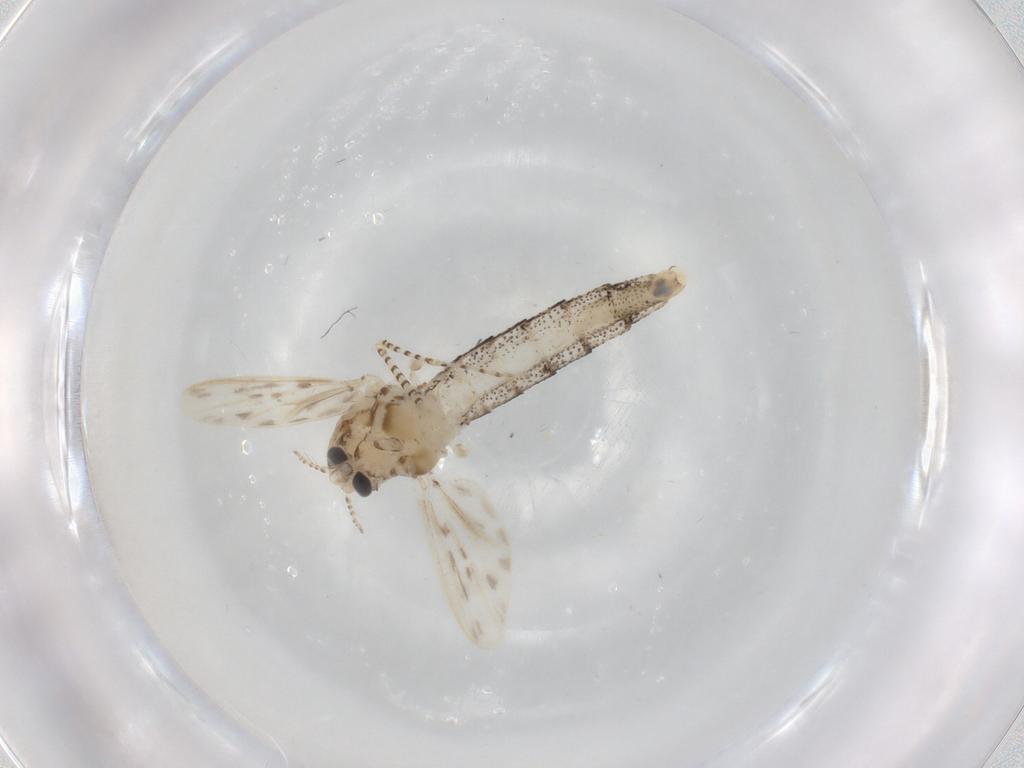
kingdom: Animalia
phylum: Arthropoda
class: Insecta
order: Diptera
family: Chaoboridae
